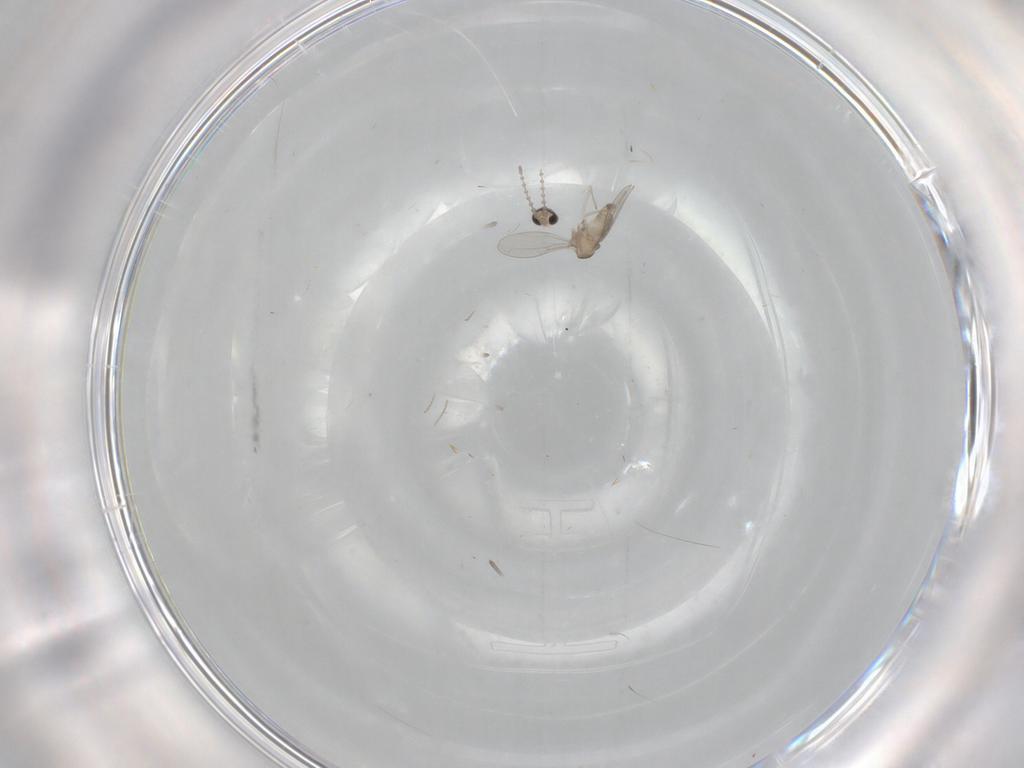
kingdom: Animalia
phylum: Arthropoda
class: Insecta
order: Diptera
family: Cecidomyiidae
